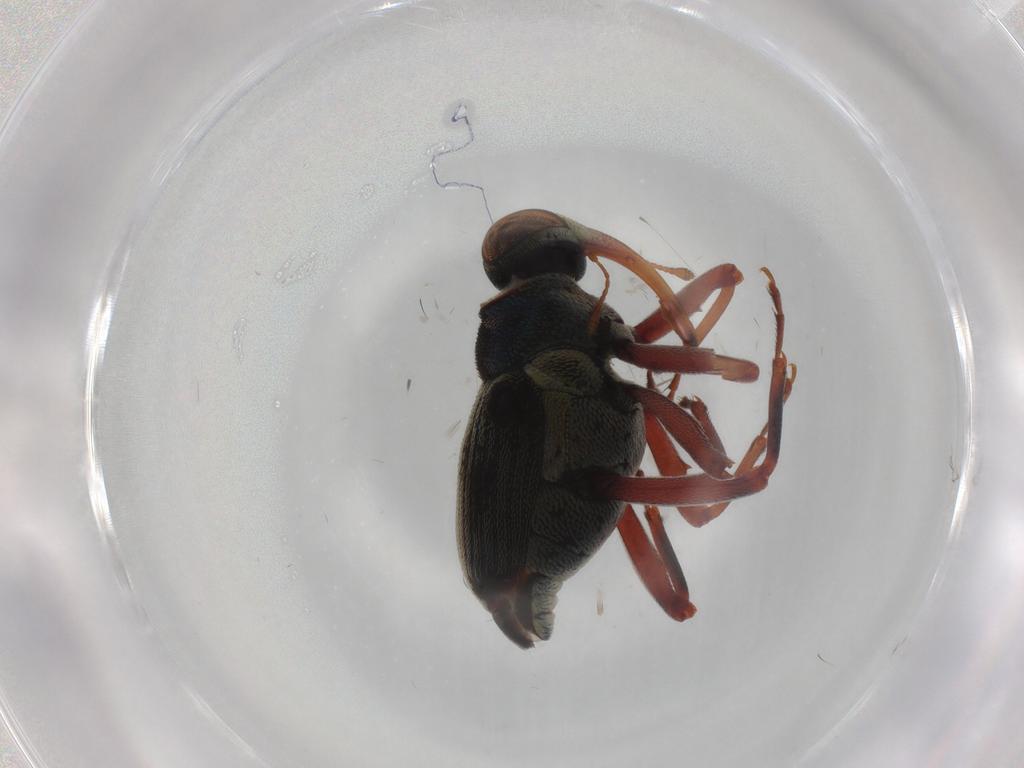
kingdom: Animalia
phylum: Arthropoda
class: Insecta
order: Coleoptera
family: Curculionidae
